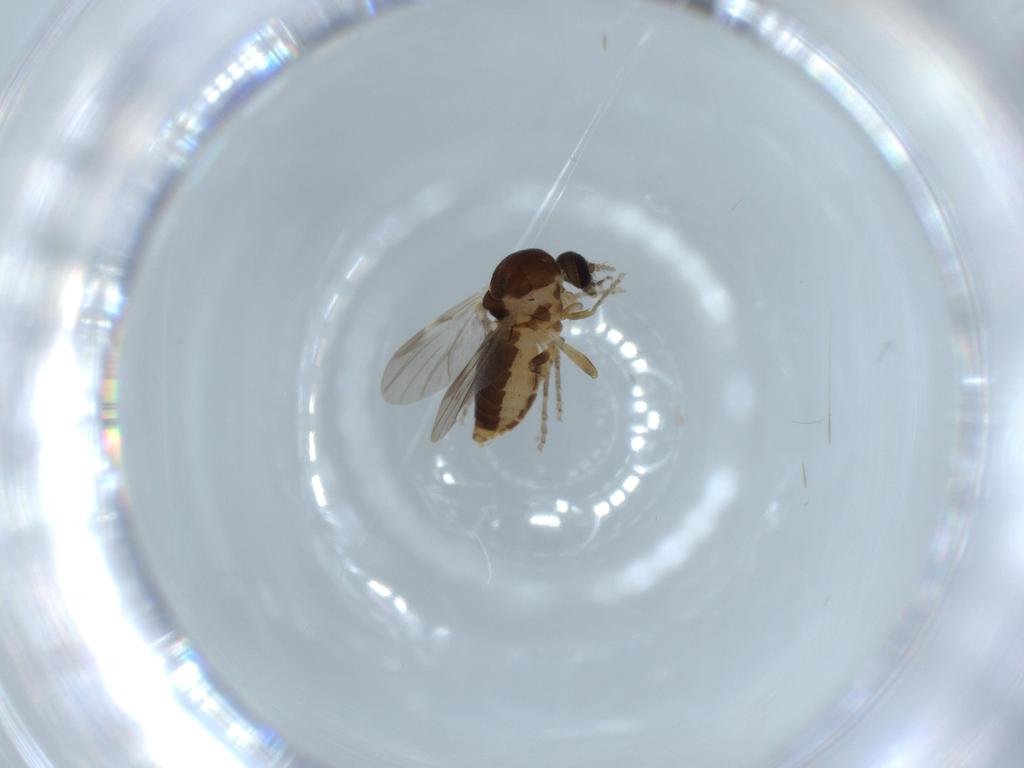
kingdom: Animalia
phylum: Arthropoda
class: Insecta
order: Diptera
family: Ceratopogonidae
